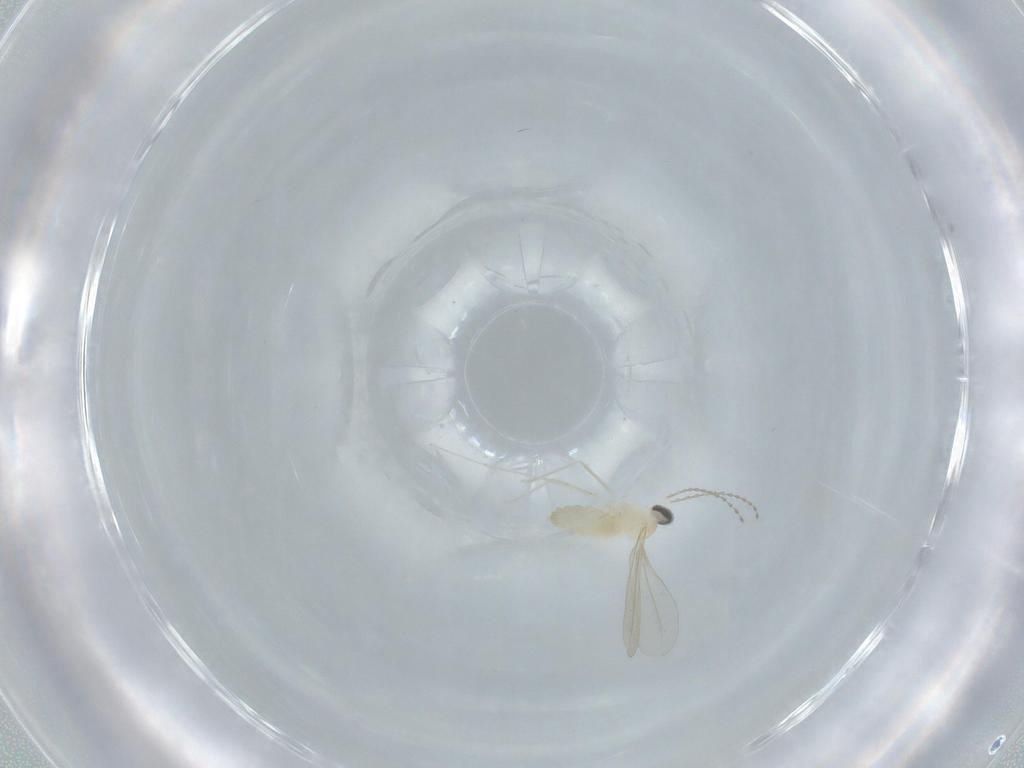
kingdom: Animalia
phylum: Arthropoda
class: Insecta
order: Diptera
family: Cecidomyiidae
